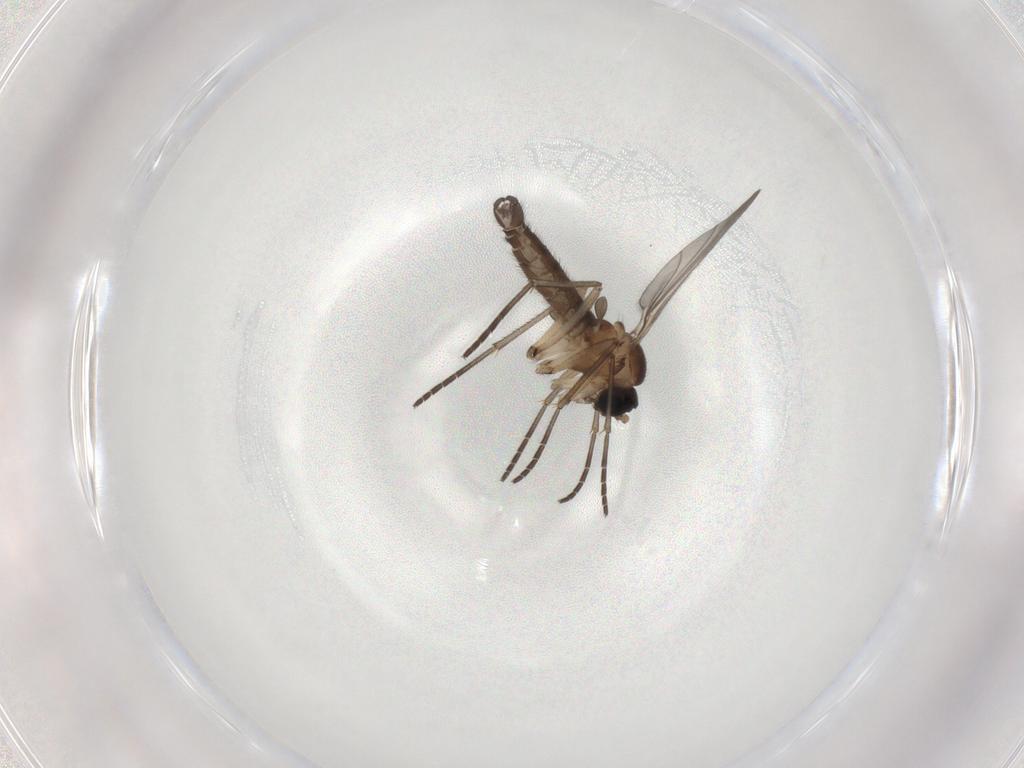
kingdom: Animalia
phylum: Arthropoda
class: Insecta
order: Diptera
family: Sciaridae
